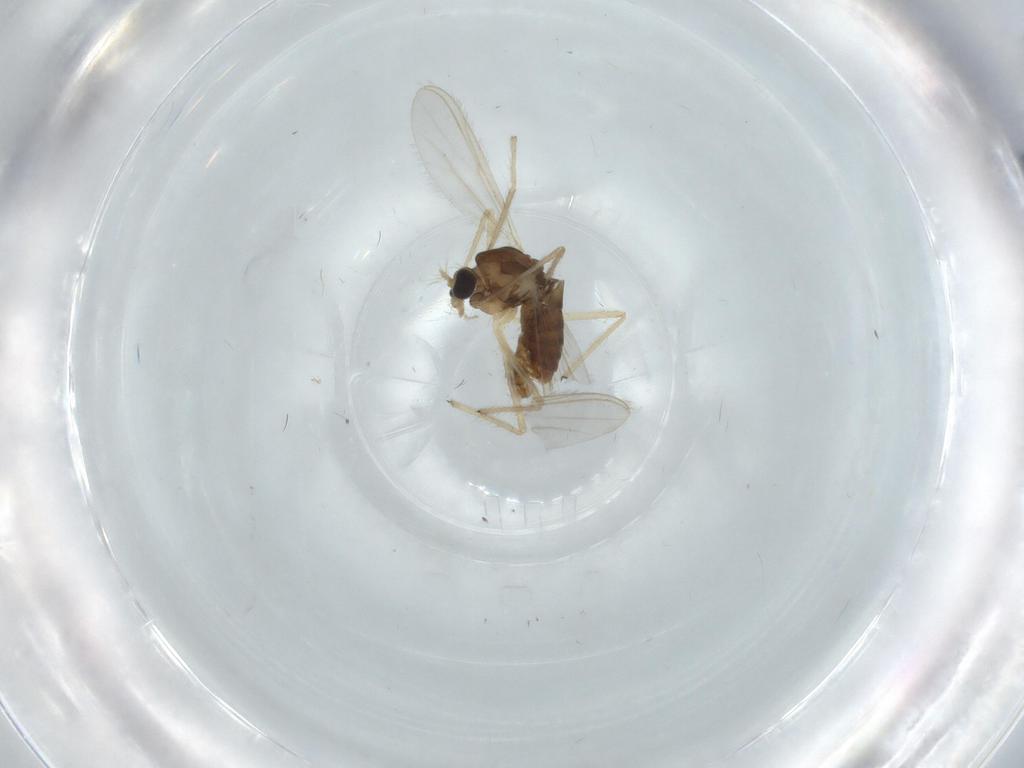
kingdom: Animalia
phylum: Arthropoda
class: Insecta
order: Diptera
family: Chironomidae
